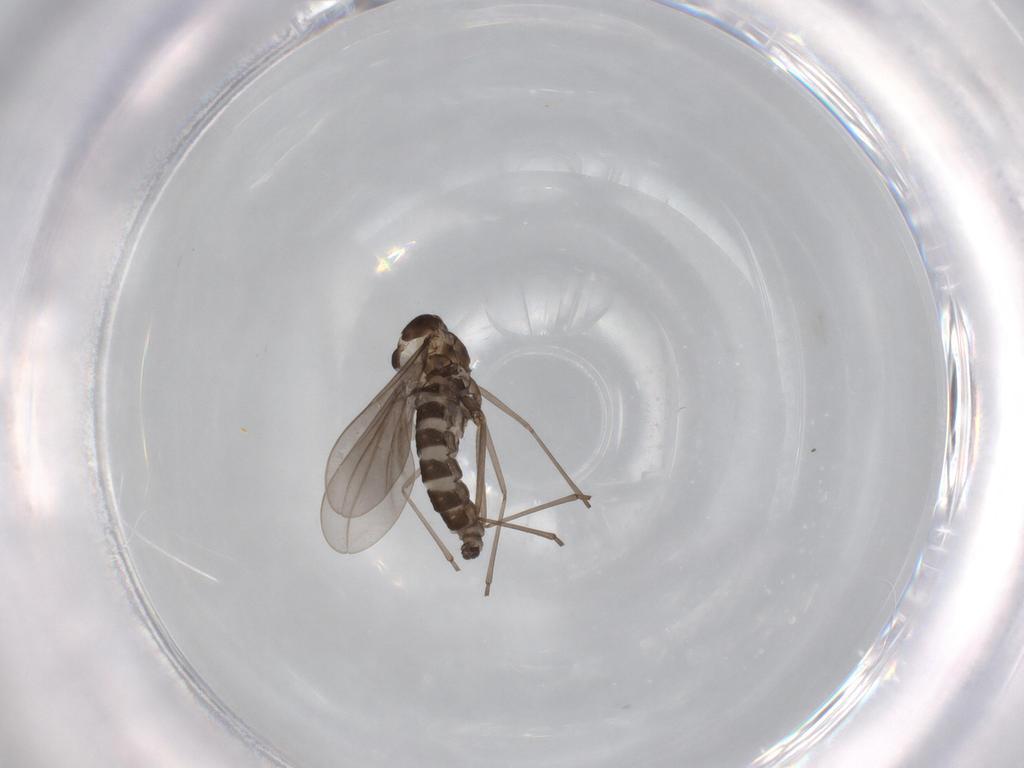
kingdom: Animalia
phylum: Arthropoda
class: Insecta
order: Diptera
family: Cecidomyiidae
